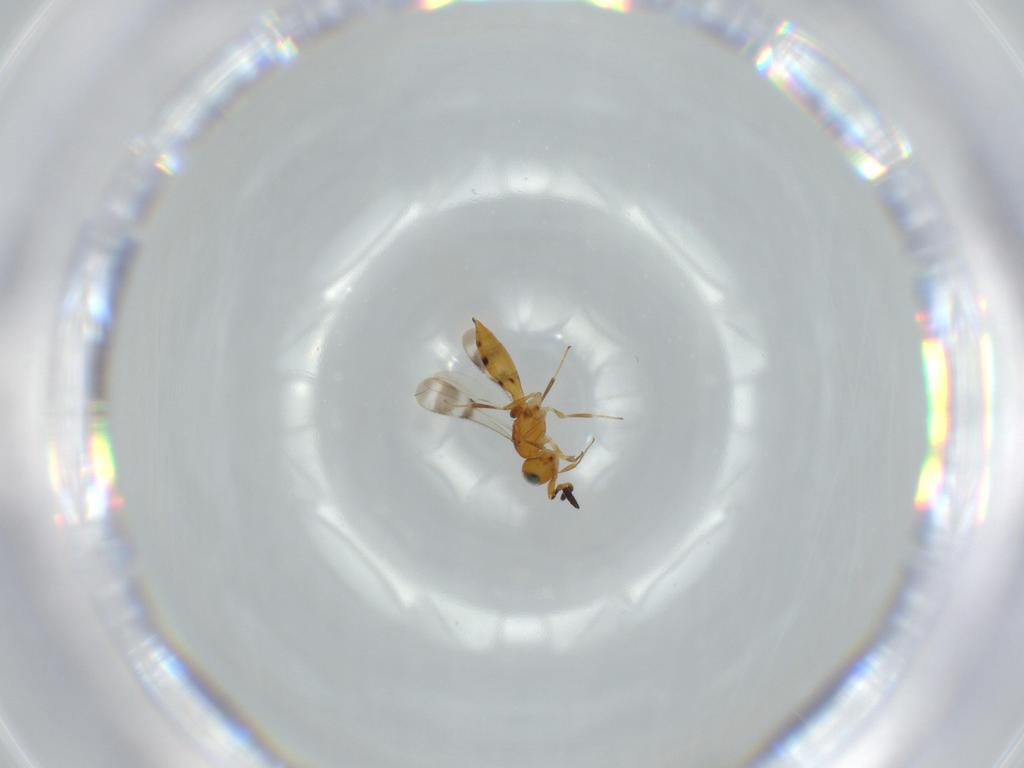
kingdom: Animalia
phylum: Arthropoda
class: Insecta
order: Hymenoptera
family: Scelionidae
